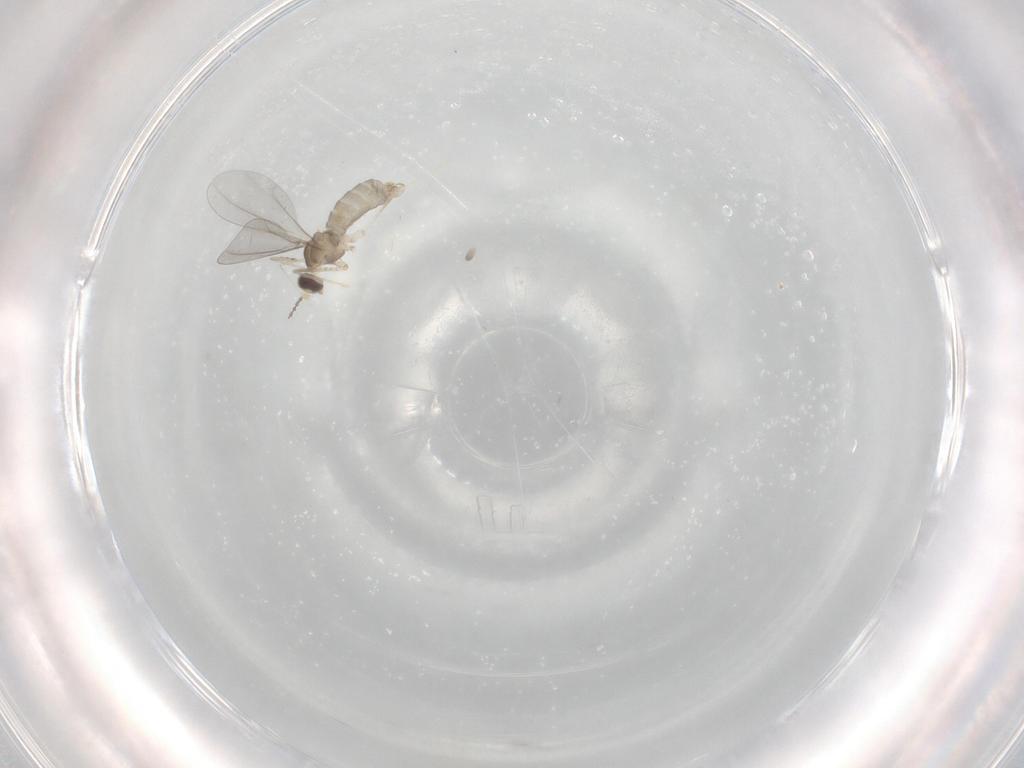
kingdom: Animalia
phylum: Arthropoda
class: Insecta
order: Diptera
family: Cecidomyiidae
